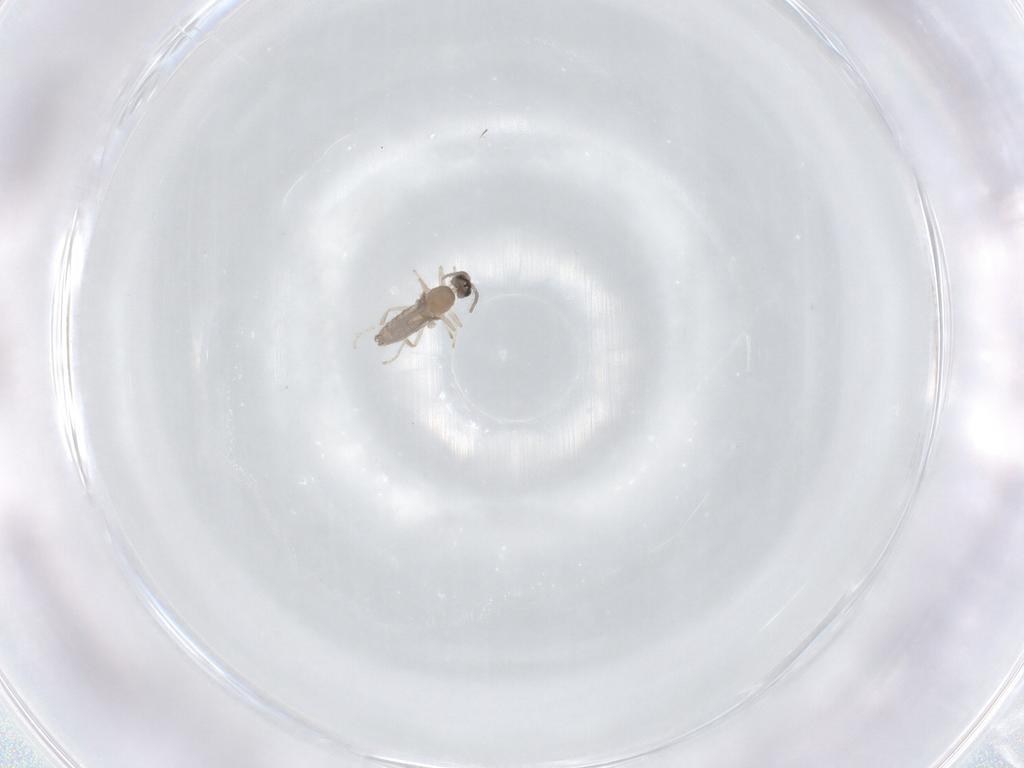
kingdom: Animalia
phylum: Arthropoda
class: Insecta
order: Diptera
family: Cecidomyiidae
